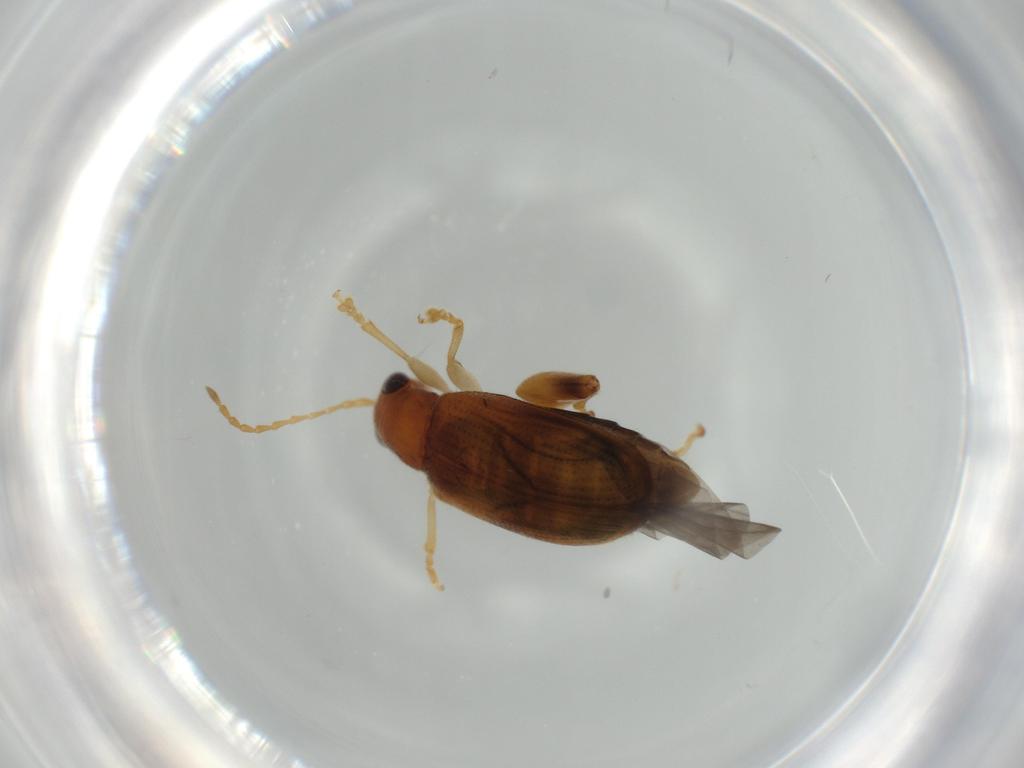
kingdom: Animalia
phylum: Arthropoda
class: Insecta
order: Coleoptera
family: Chrysomelidae
